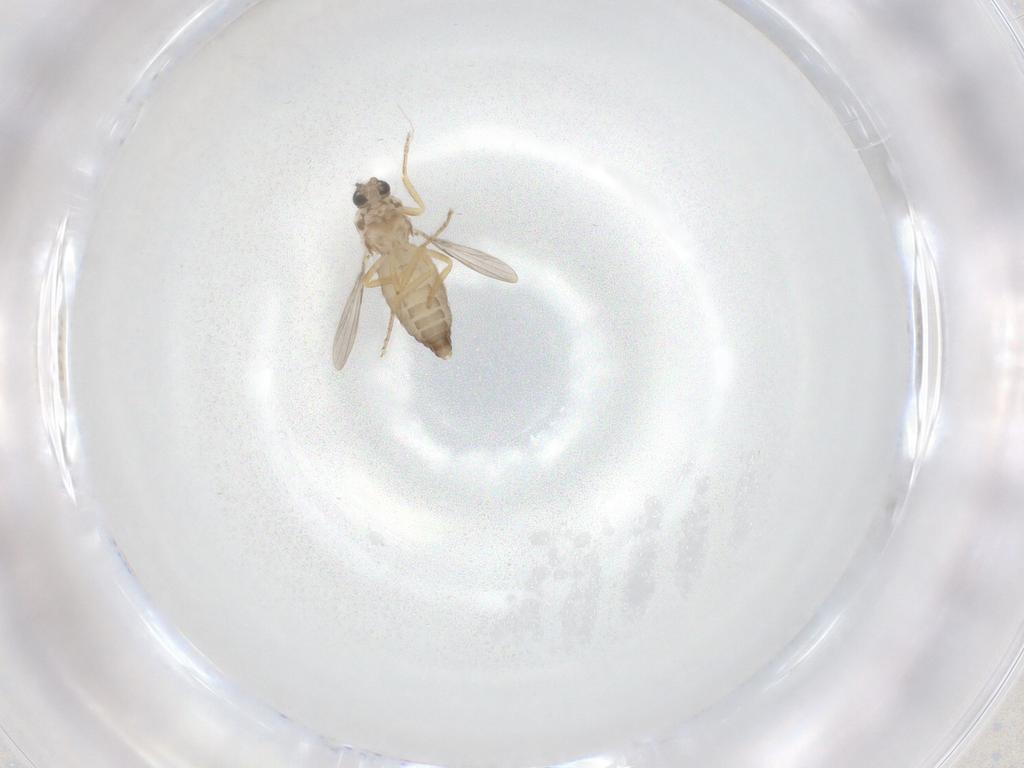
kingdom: Animalia
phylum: Arthropoda
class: Insecta
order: Diptera
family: Ceratopogonidae
